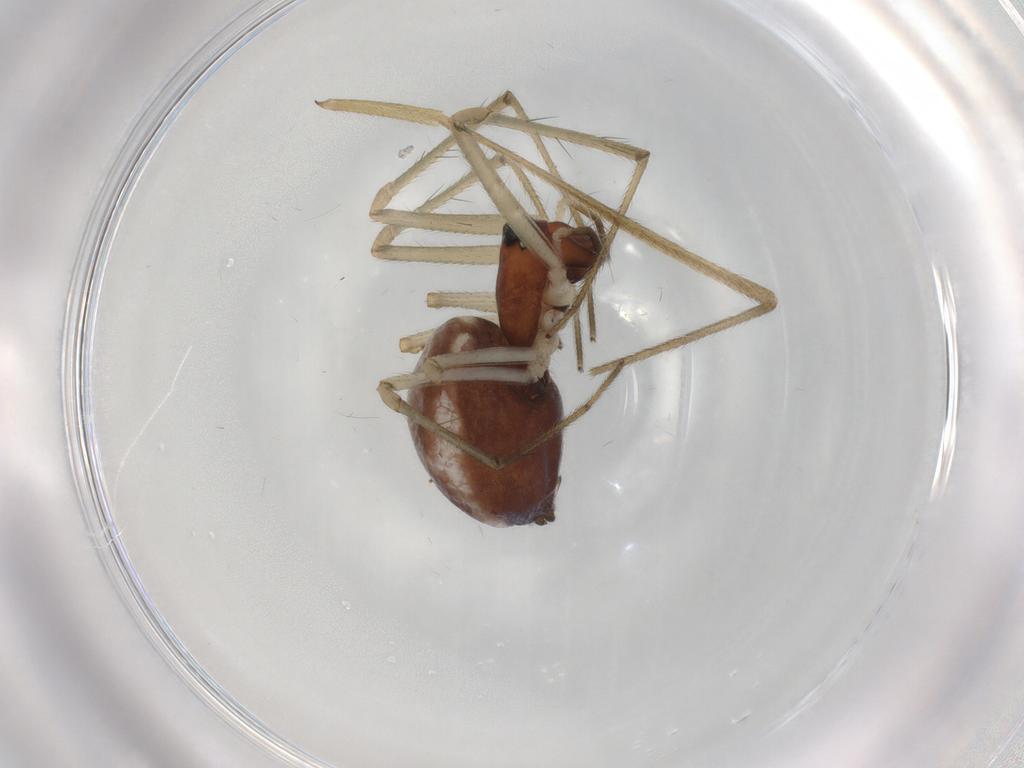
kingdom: Animalia
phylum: Arthropoda
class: Arachnida
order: Araneae
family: Linyphiidae
